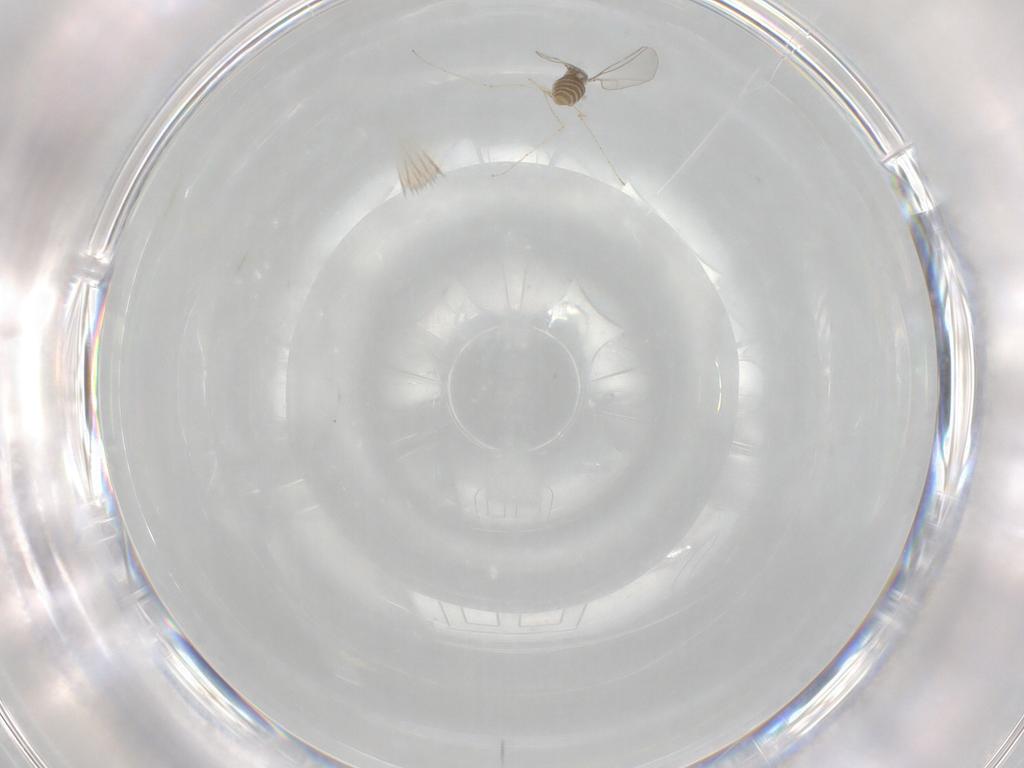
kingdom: Animalia
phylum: Arthropoda
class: Insecta
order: Diptera
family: Cecidomyiidae
